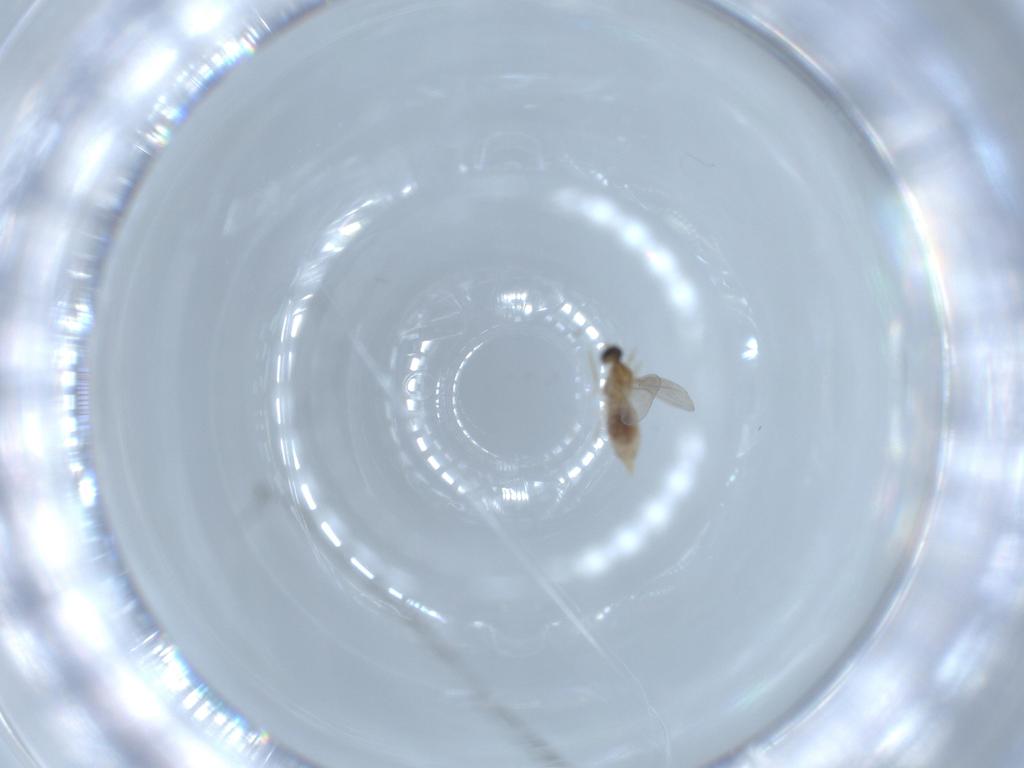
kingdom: Animalia
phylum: Arthropoda
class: Insecta
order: Diptera
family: Cecidomyiidae
